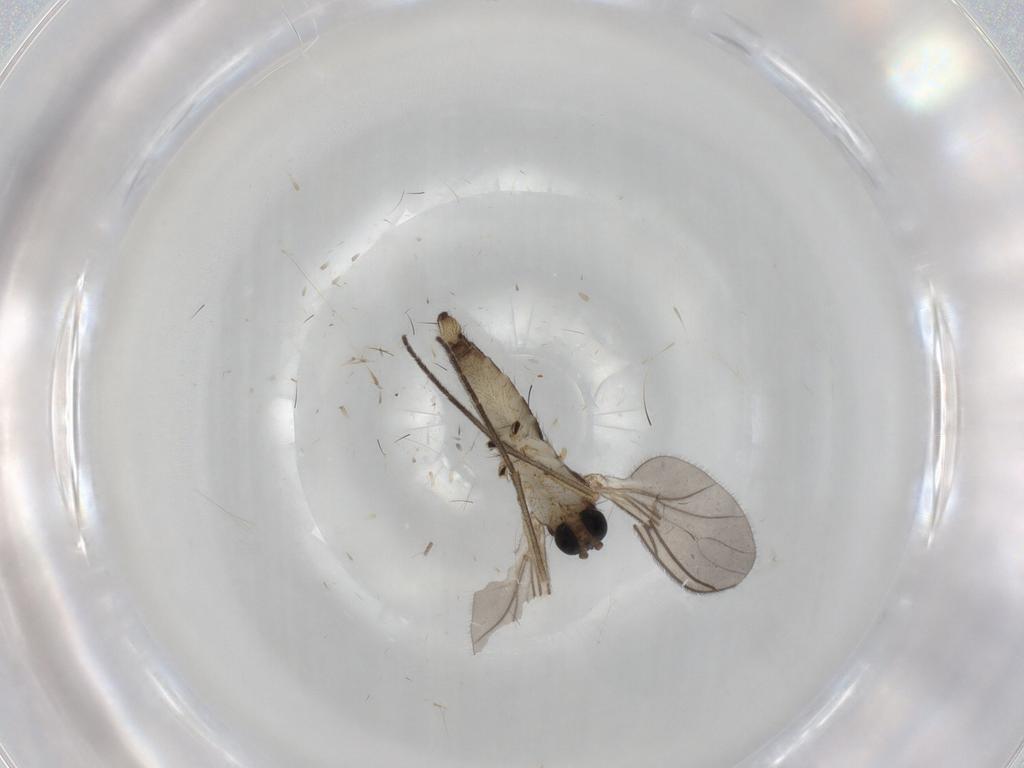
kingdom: Animalia
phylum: Arthropoda
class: Insecta
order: Diptera
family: Sciaridae
